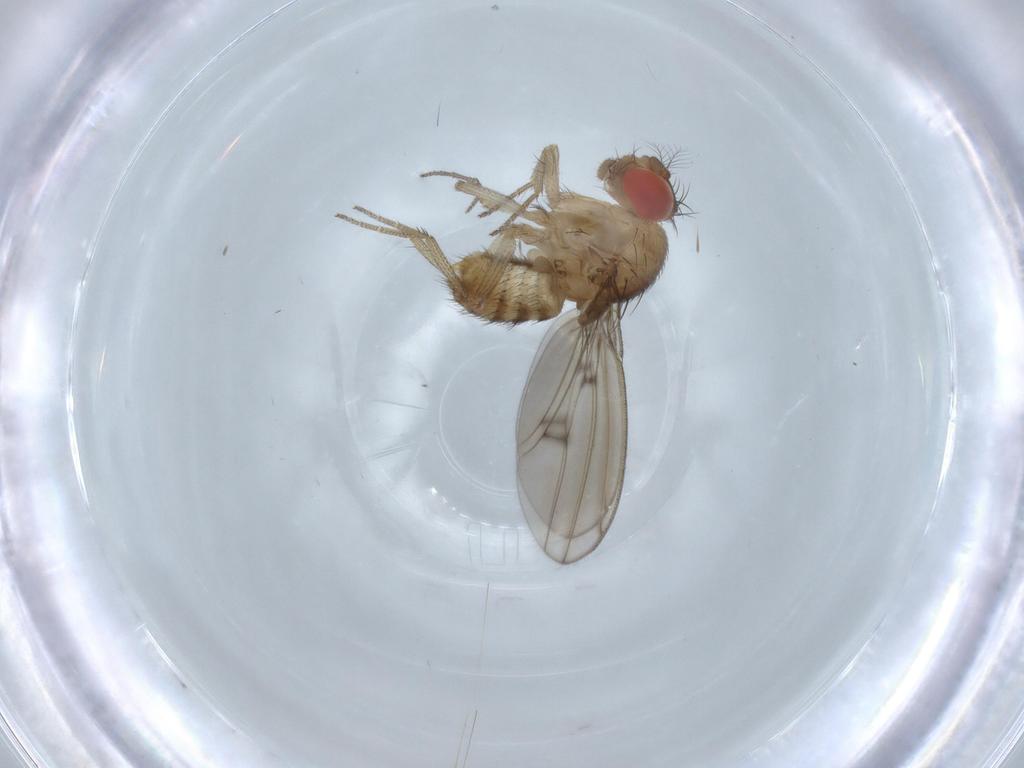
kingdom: Animalia
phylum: Arthropoda
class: Insecta
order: Diptera
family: Drosophilidae
